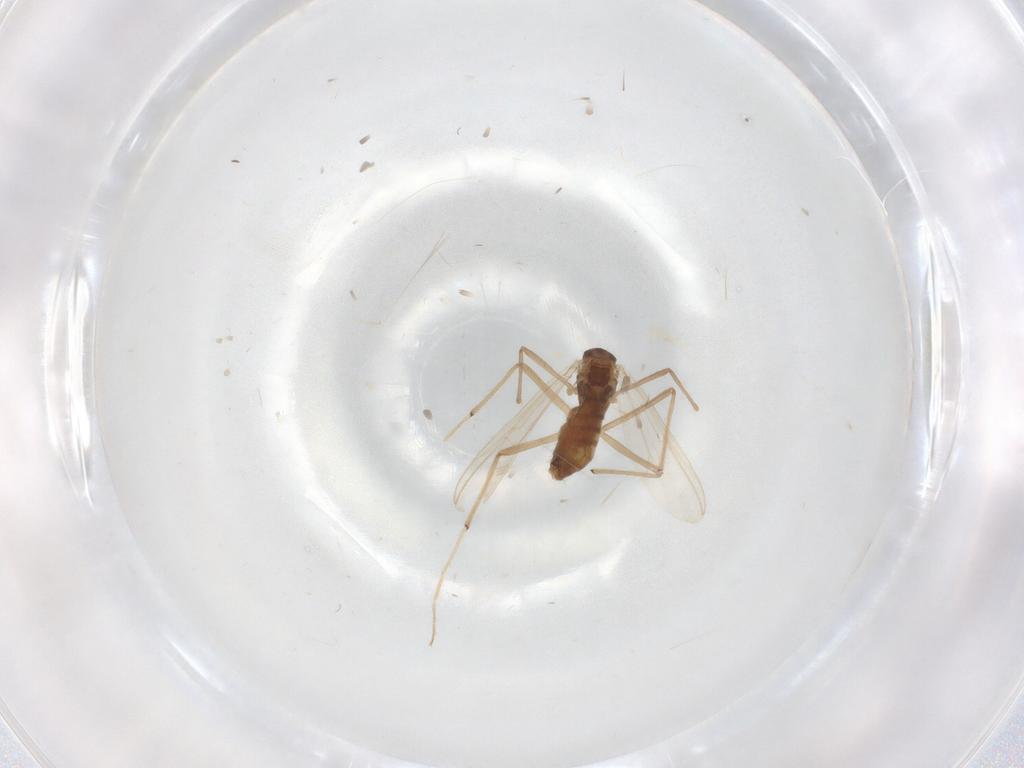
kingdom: Animalia
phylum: Arthropoda
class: Insecta
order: Diptera
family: Chironomidae
